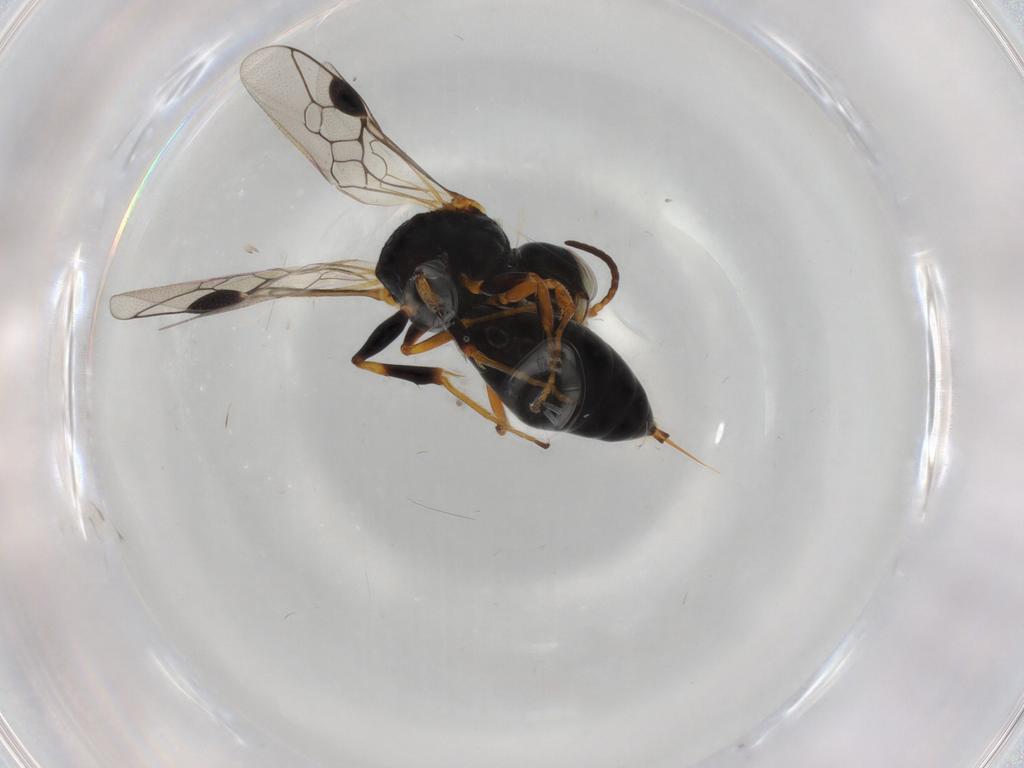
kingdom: Animalia
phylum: Arthropoda
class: Insecta
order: Hymenoptera
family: Pemphredonidae
